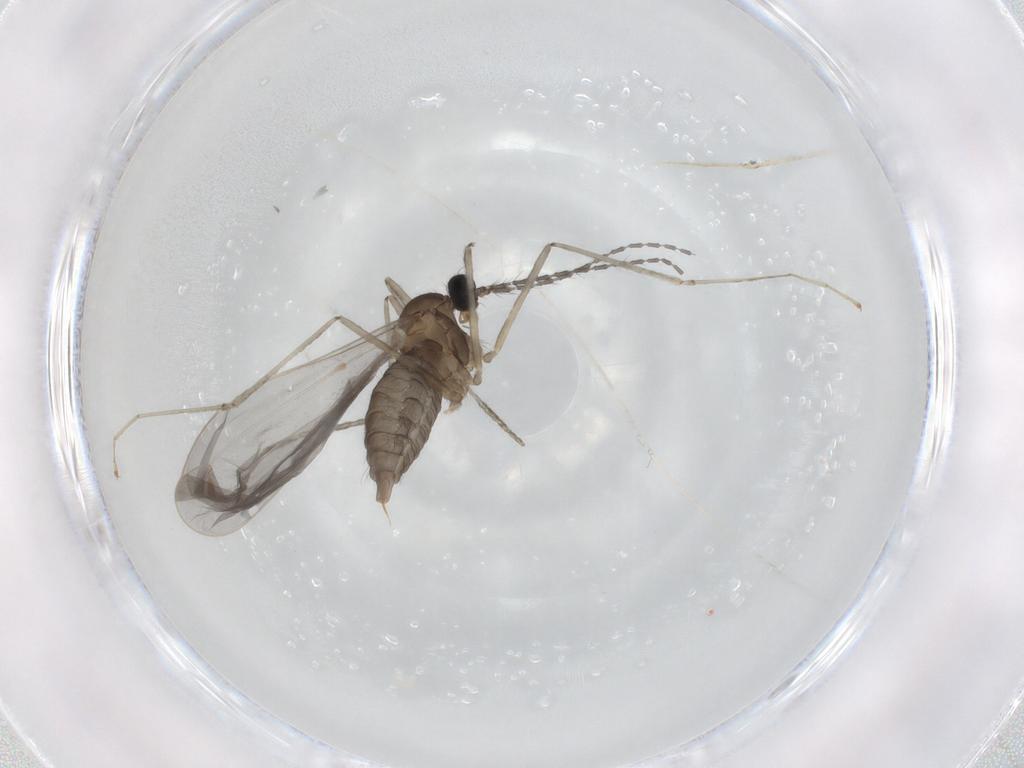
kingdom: Animalia
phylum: Arthropoda
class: Insecta
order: Diptera
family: Cecidomyiidae
